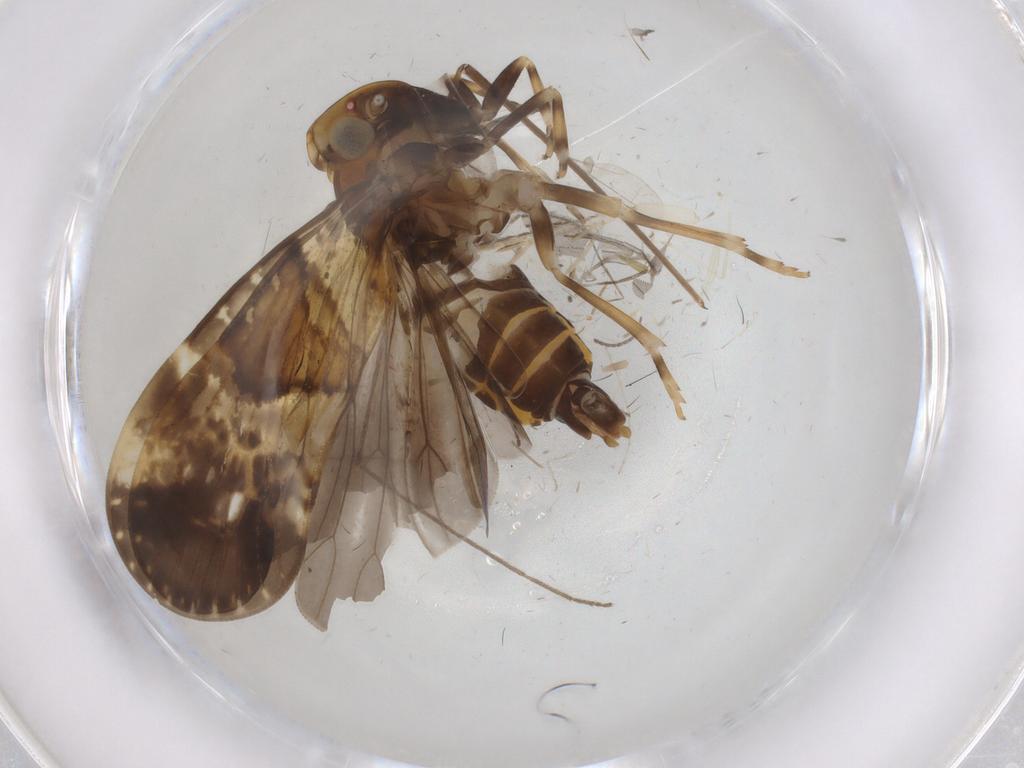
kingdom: Animalia
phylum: Arthropoda
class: Insecta
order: Hemiptera
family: Cixiidae
